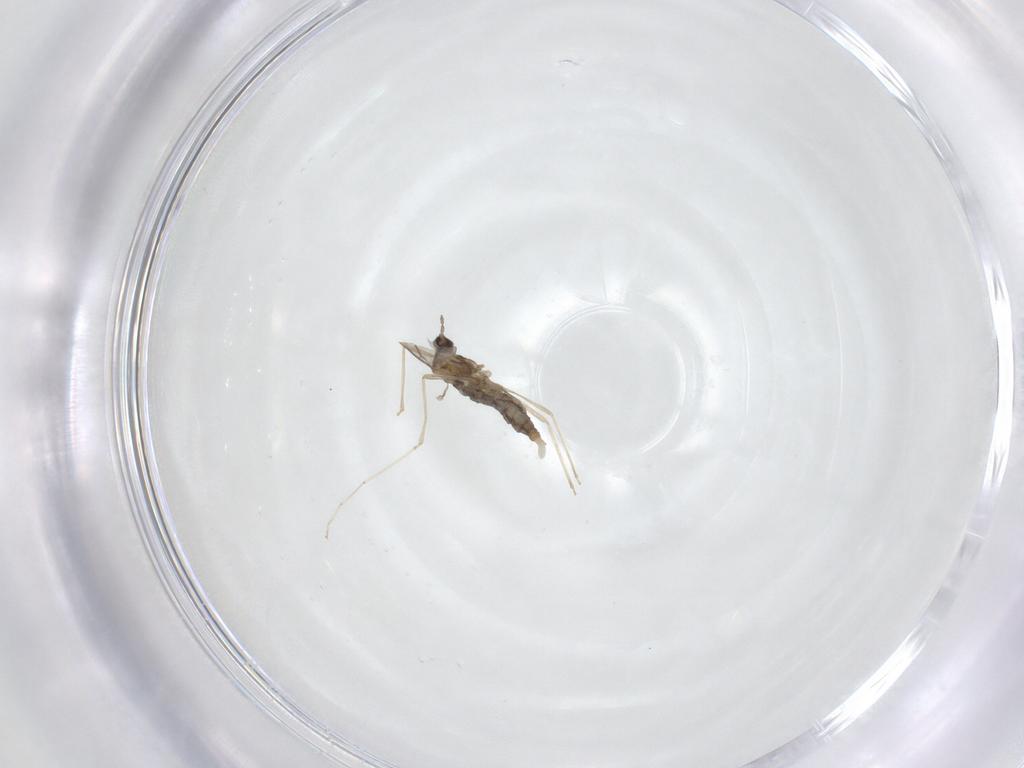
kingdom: Animalia
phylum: Arthropoda
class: Insecta
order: Diptera
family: Cecidomyiidae
